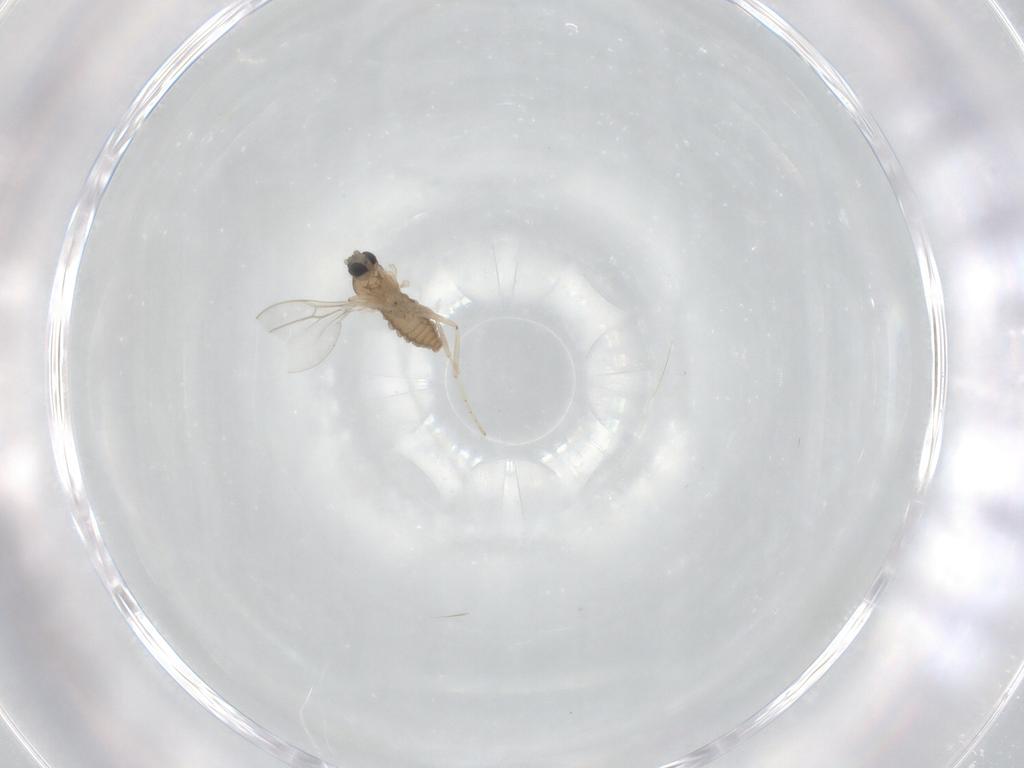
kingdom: Animalia
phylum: Arthropoda
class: Insecta
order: Diptera
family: Cecidomyiidae
